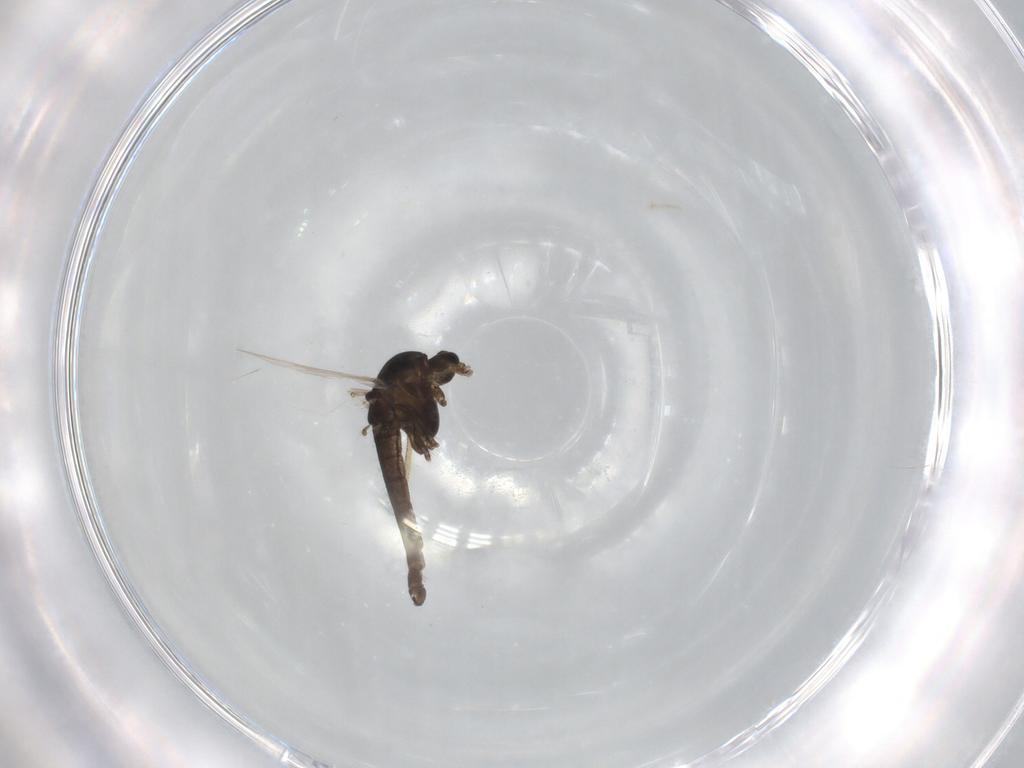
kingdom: Animalia
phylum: Arthropoda
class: Insecta
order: Diptera
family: Chironomidae
